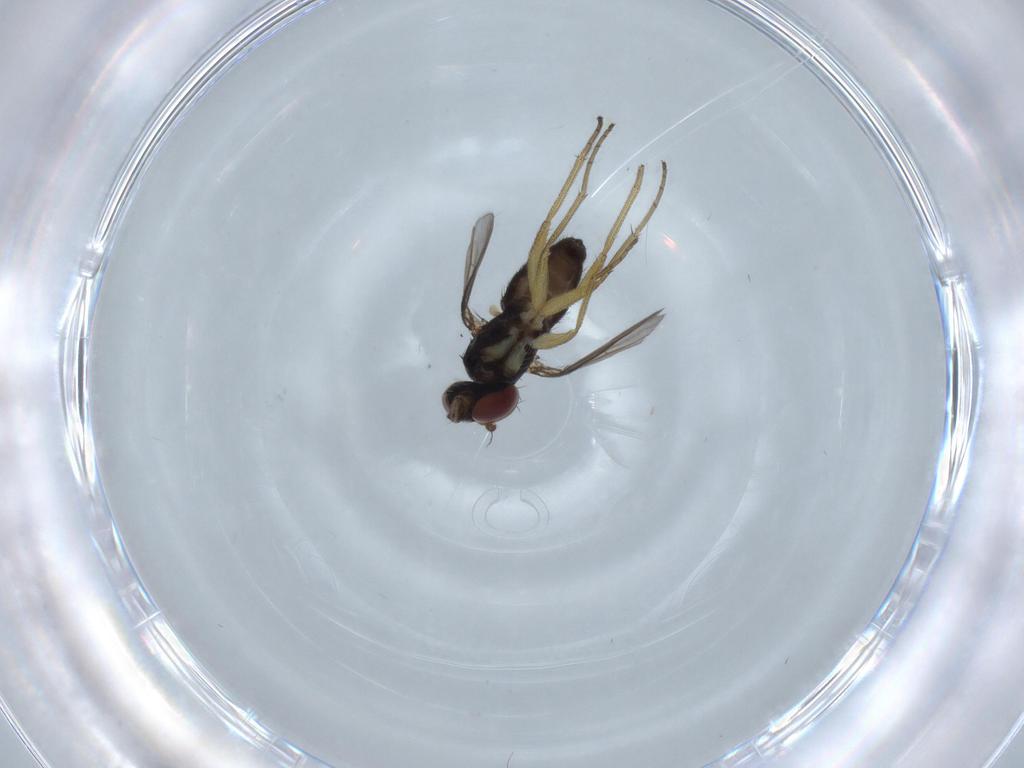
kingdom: Animalia
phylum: Arthropoda
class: Insecta
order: Diptera
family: Dolichopodidae
